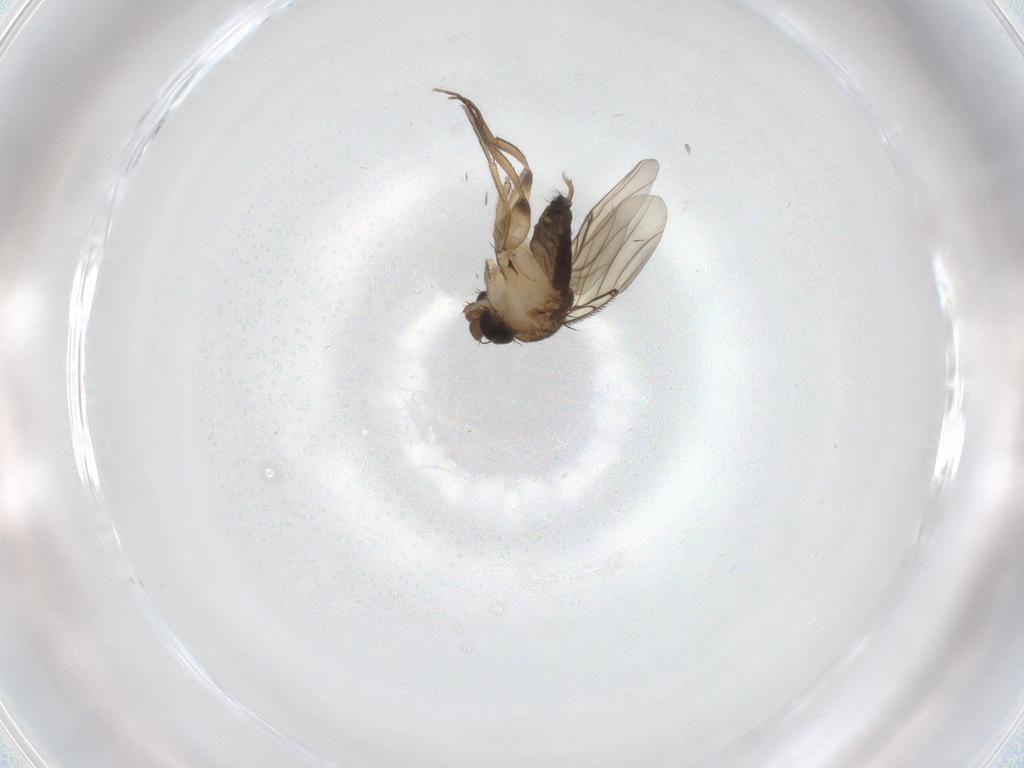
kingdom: Animalia
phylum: Arthropoda
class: Insecta
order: Diptera
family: Phoridae
